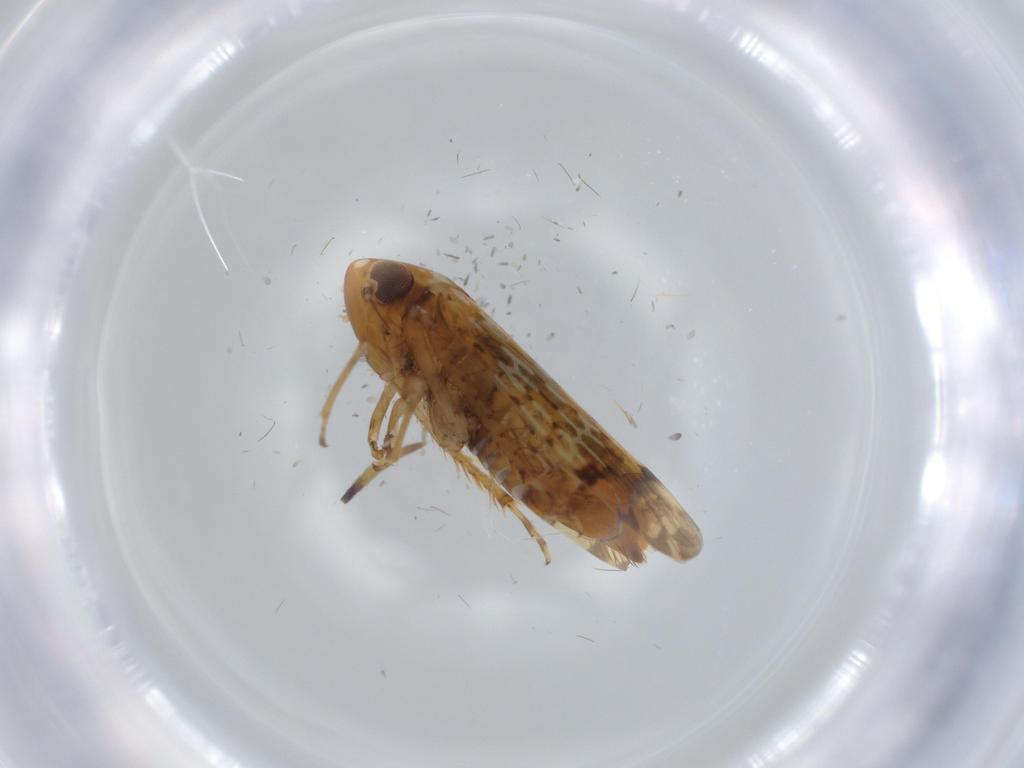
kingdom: Animalia
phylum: Arthropoda
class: Insecta
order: Hemiptera
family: Cicadellidae
